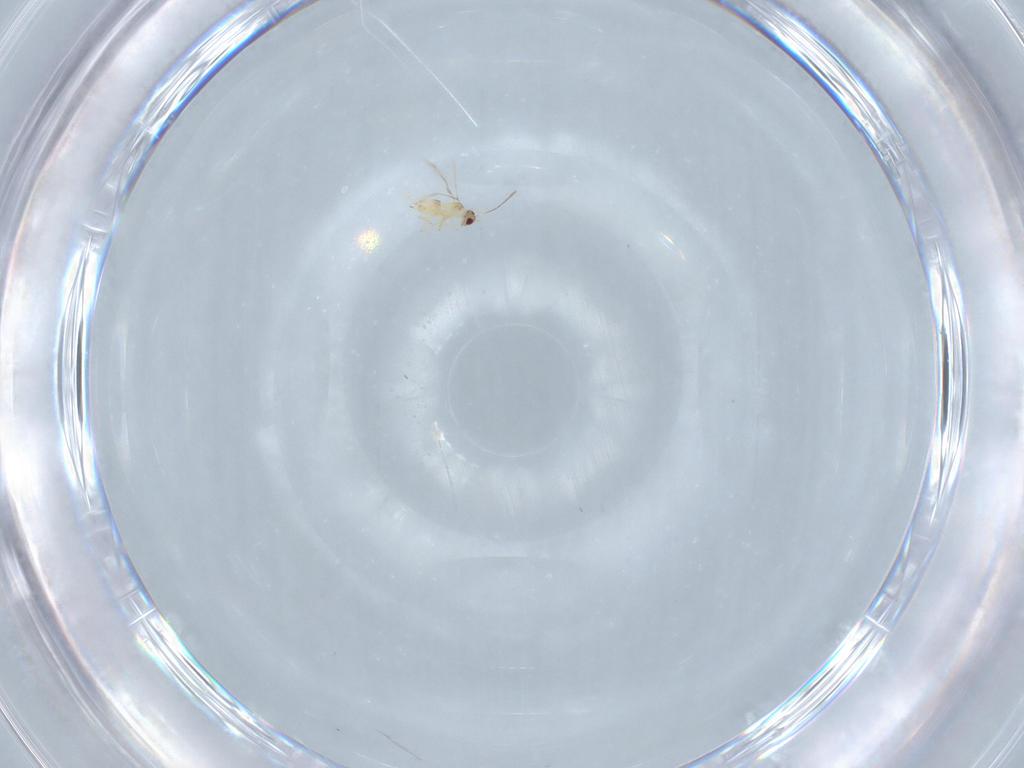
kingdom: Animalia
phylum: Arthropoda
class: Insecta
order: Hymenoptera
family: Mymaridae
